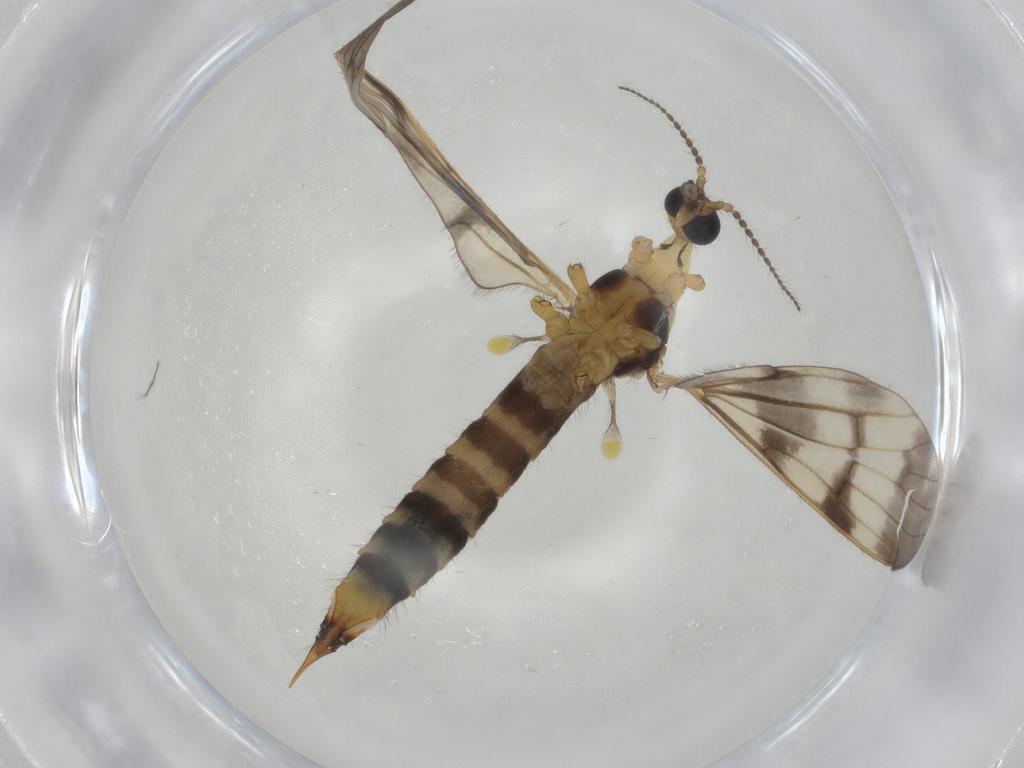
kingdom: Animalia
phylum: Arthropoda
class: Insecta
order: Diptera
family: Limoniidae
